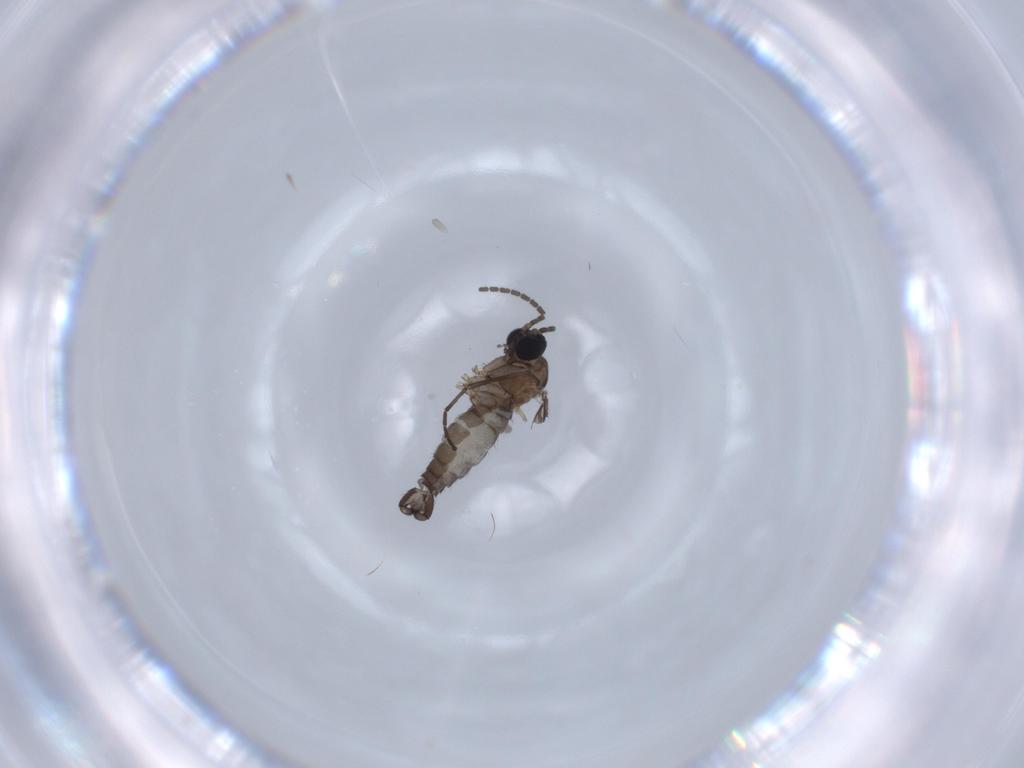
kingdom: Animalia
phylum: Arthropoda
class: Insecta
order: Diptera
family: Sciaridae
